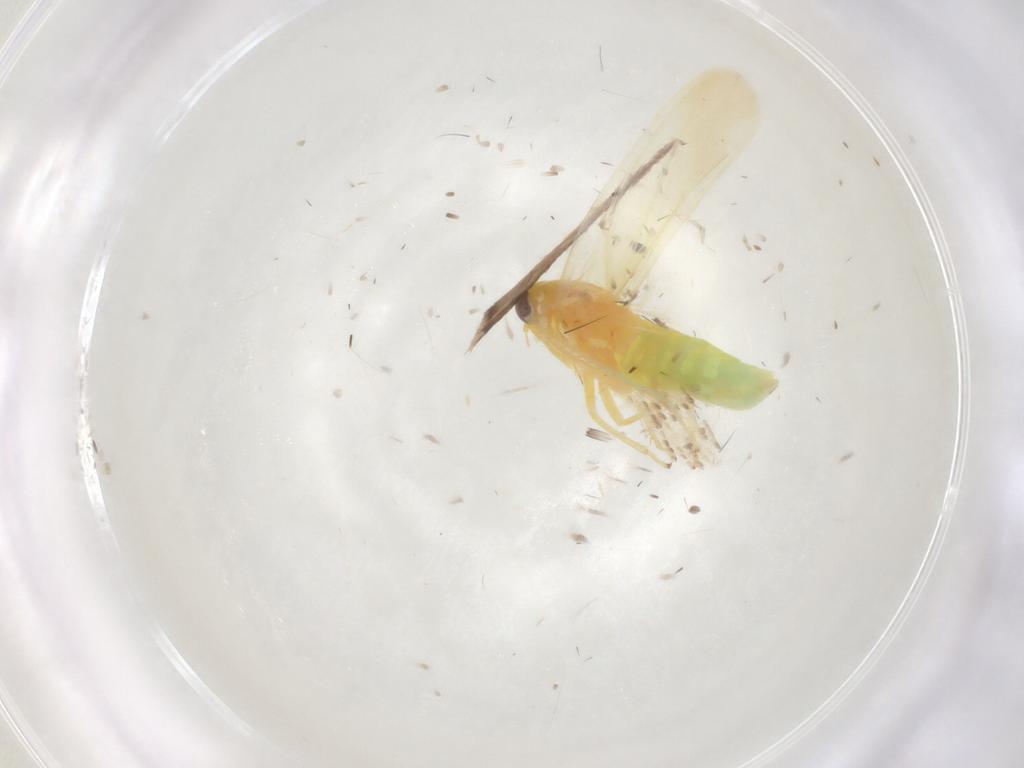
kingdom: Animalia
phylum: Arthropoda
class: Insecta
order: Hemiptera
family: Cicadellidae
